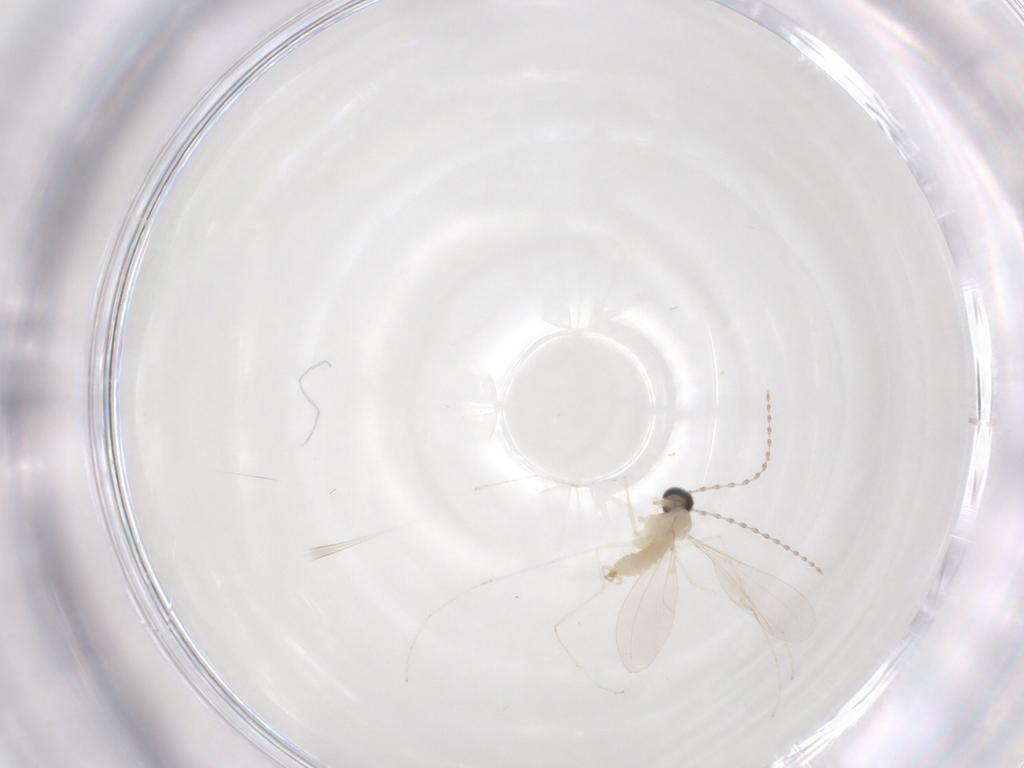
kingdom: Animalia
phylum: Arthropoda
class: Insecta
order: Diptera
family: Cecidomyiidae
